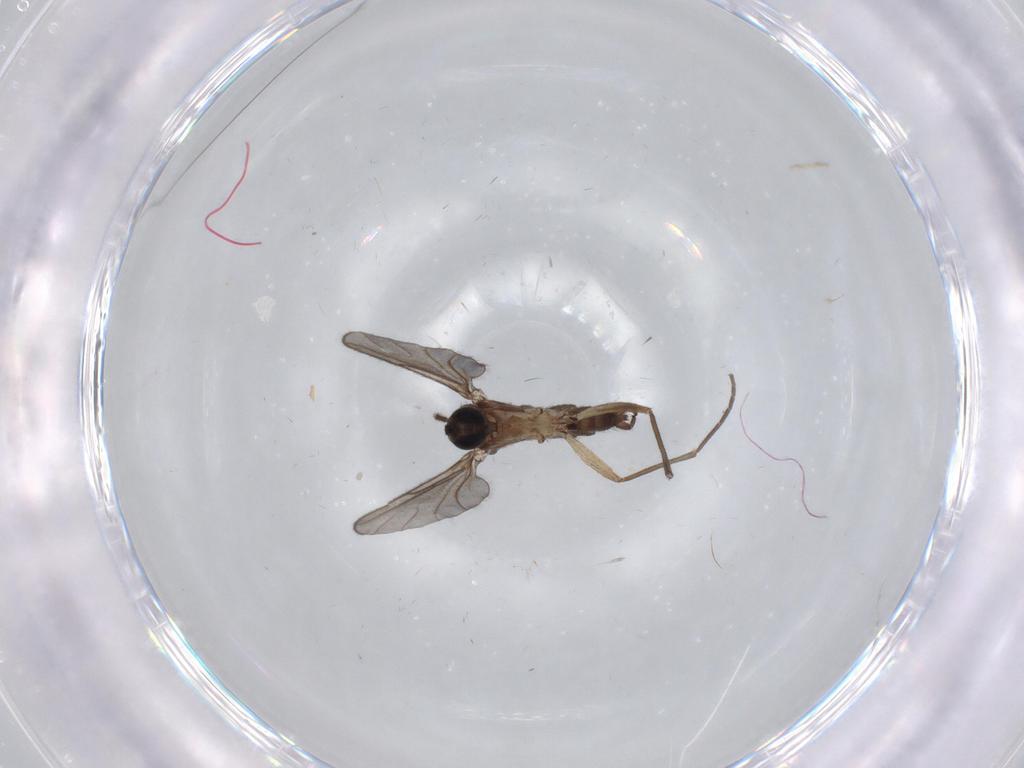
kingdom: Animalia
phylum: Arthropoda
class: Insecta
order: Diptera
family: Sciaridae
